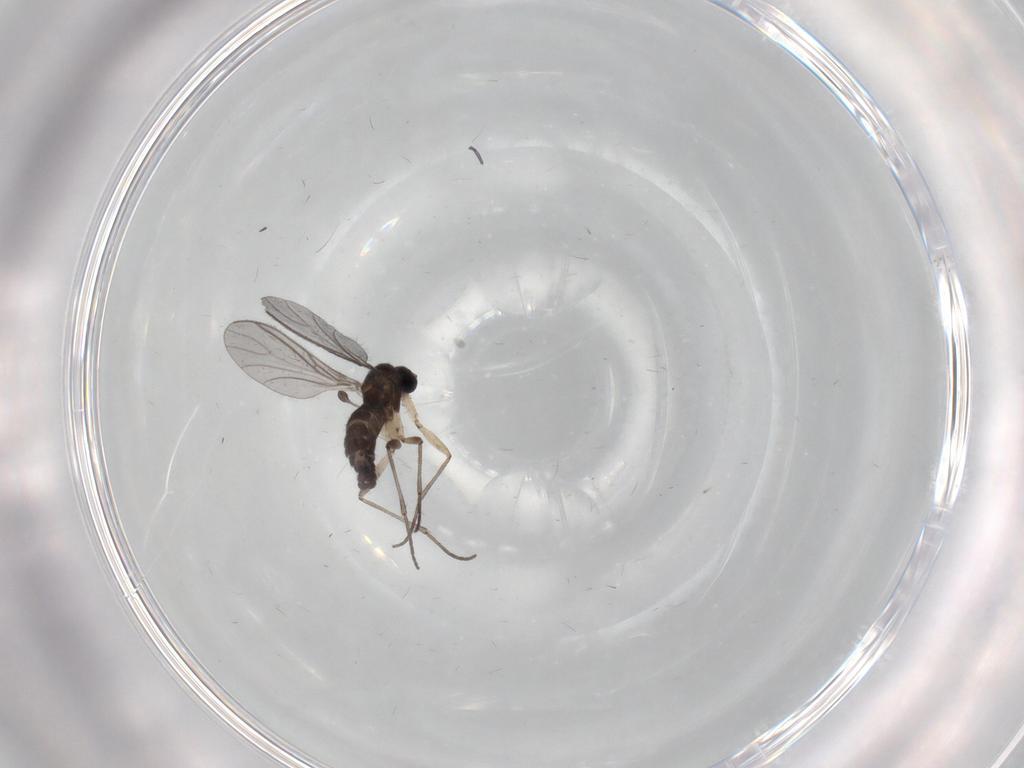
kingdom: Animalia
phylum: Arthropoda
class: Insecta
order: Diptera
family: Sciaridae
